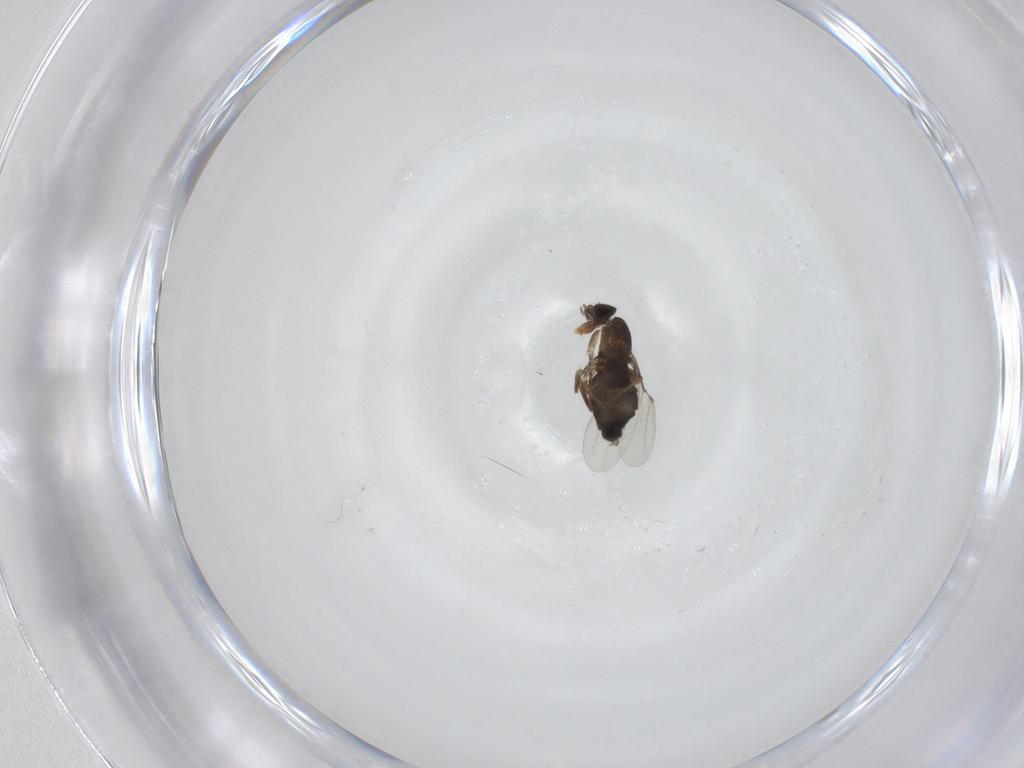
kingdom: Animalia
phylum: Arthropoda
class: Insecta
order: Diptera
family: Phoridae
